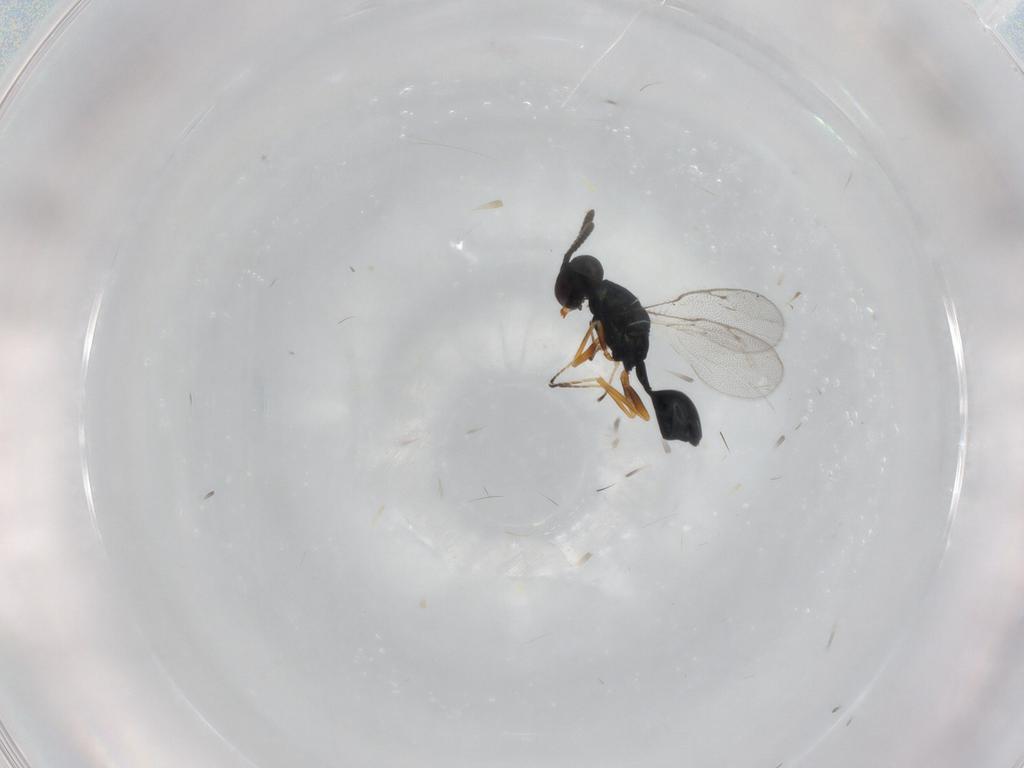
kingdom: Animalia
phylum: Arthropoda
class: Insecta
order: Hymenoptera
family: Pteromalidae
